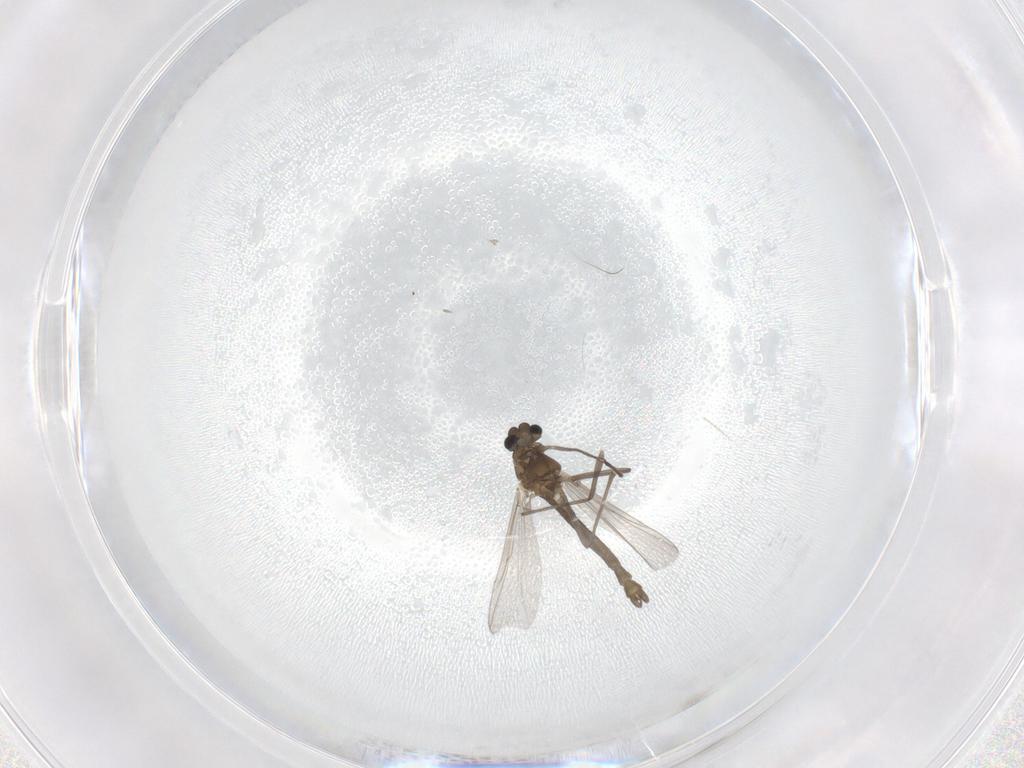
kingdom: Animalia
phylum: Arthropoda
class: Insecta
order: Diptera
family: Chironomidae
